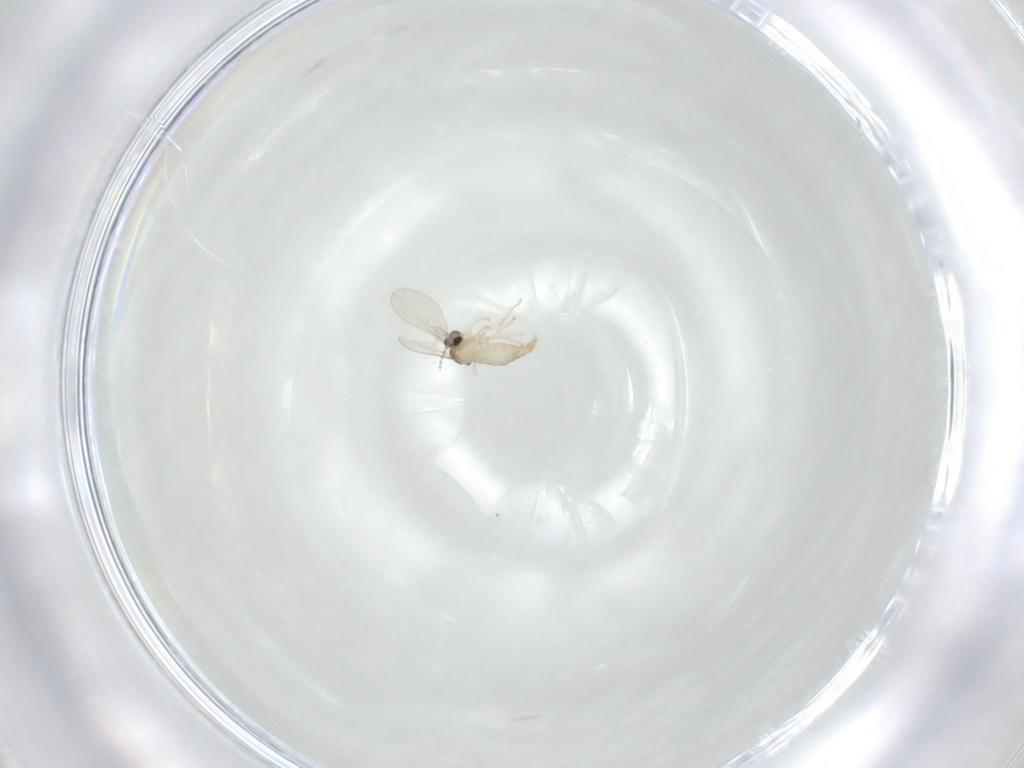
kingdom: Animalia
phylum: Arthropoda
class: Insecta
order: Diptera
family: Cecidomyiidae
